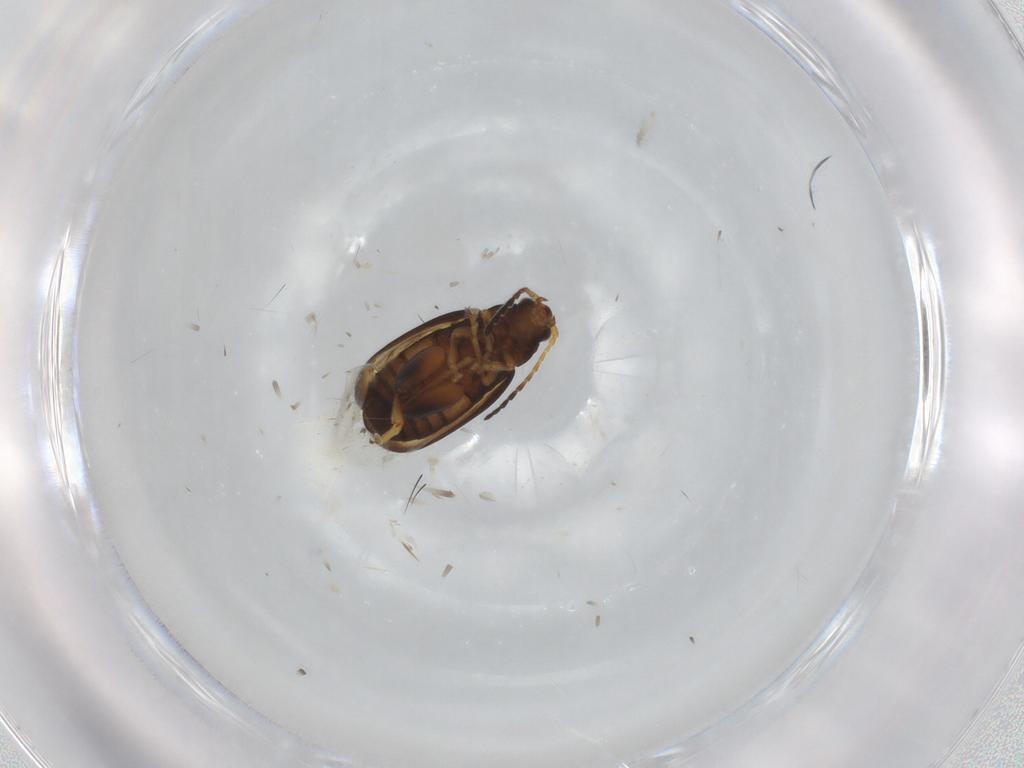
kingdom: Animalia
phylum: Arthropoda
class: Insecta
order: Coleoptera
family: Chrysomelidae
